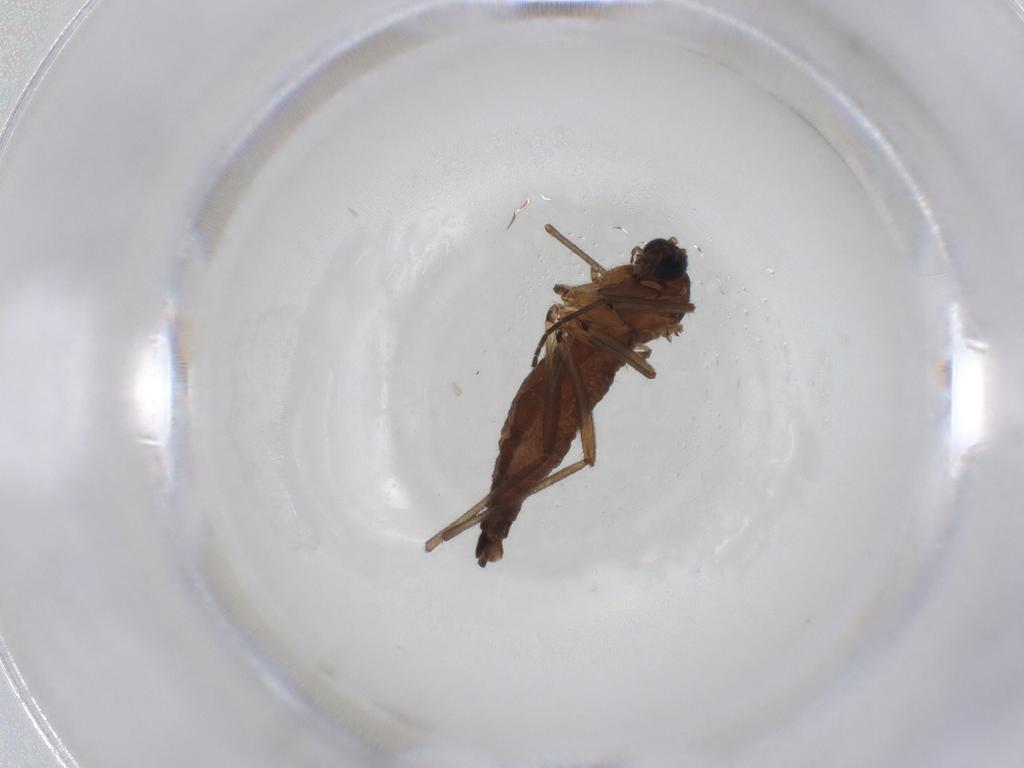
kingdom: Animalia
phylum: Arthropoda
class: Insecta
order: Diptera
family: Sciaridae
